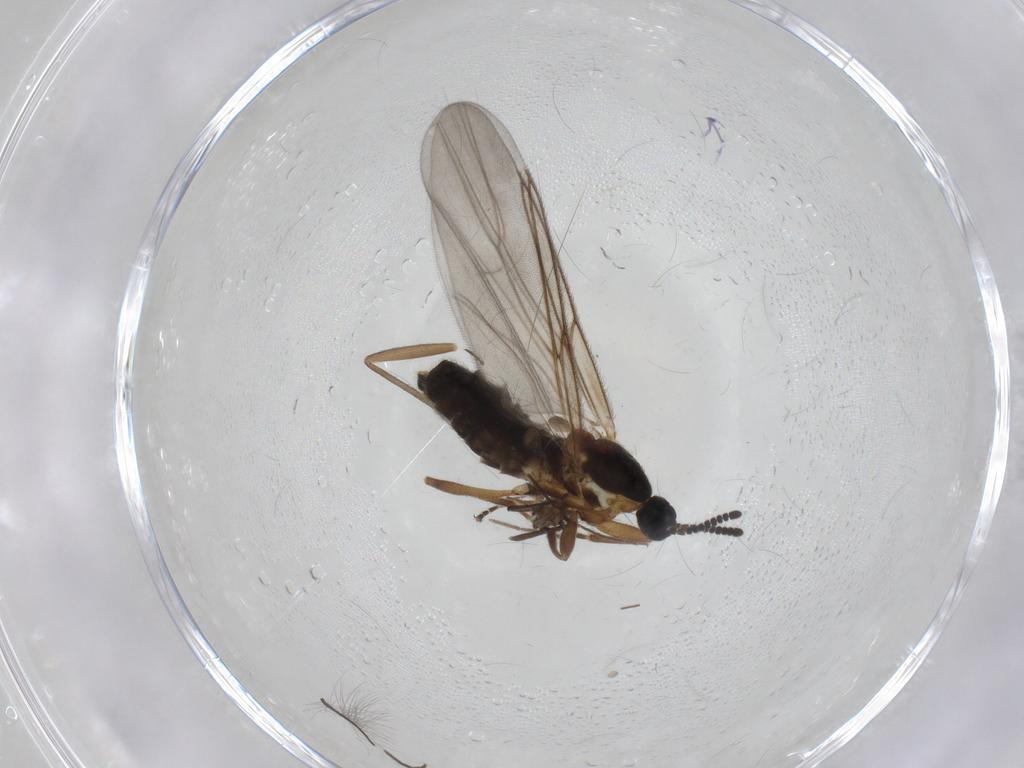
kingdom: Animalia
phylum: Arthropoda
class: Insecta
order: Diptera
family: Scatopsidae
